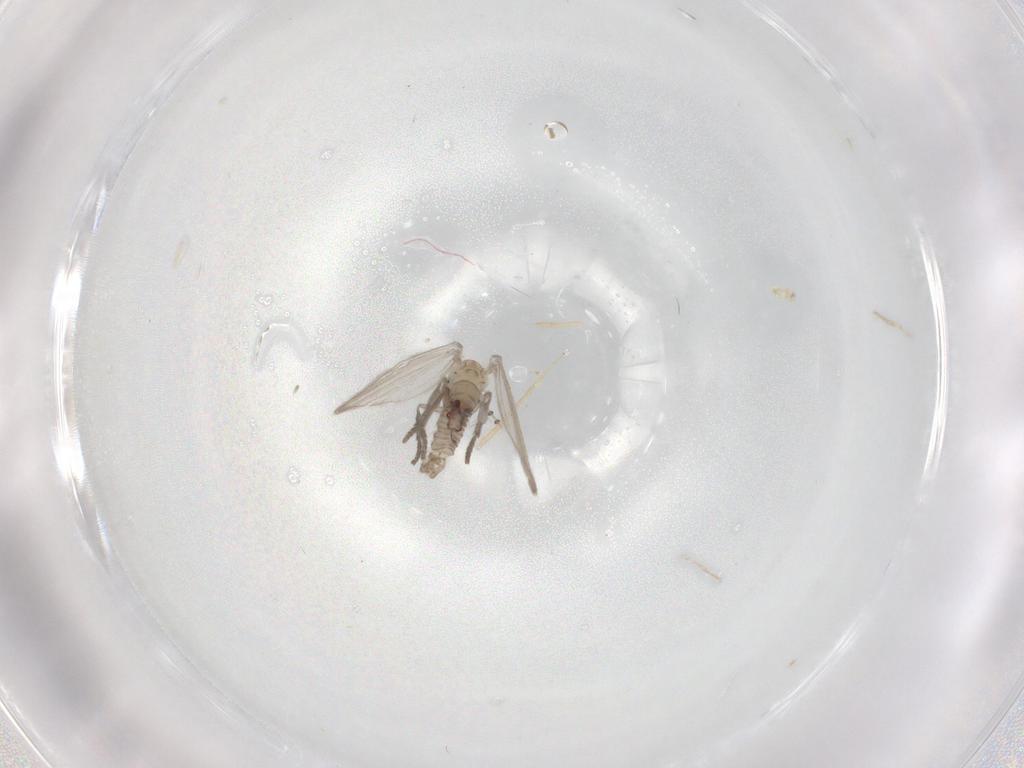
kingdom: Animalia
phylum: Arthropoda
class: Insecta
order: Diptera
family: Psychodidae
